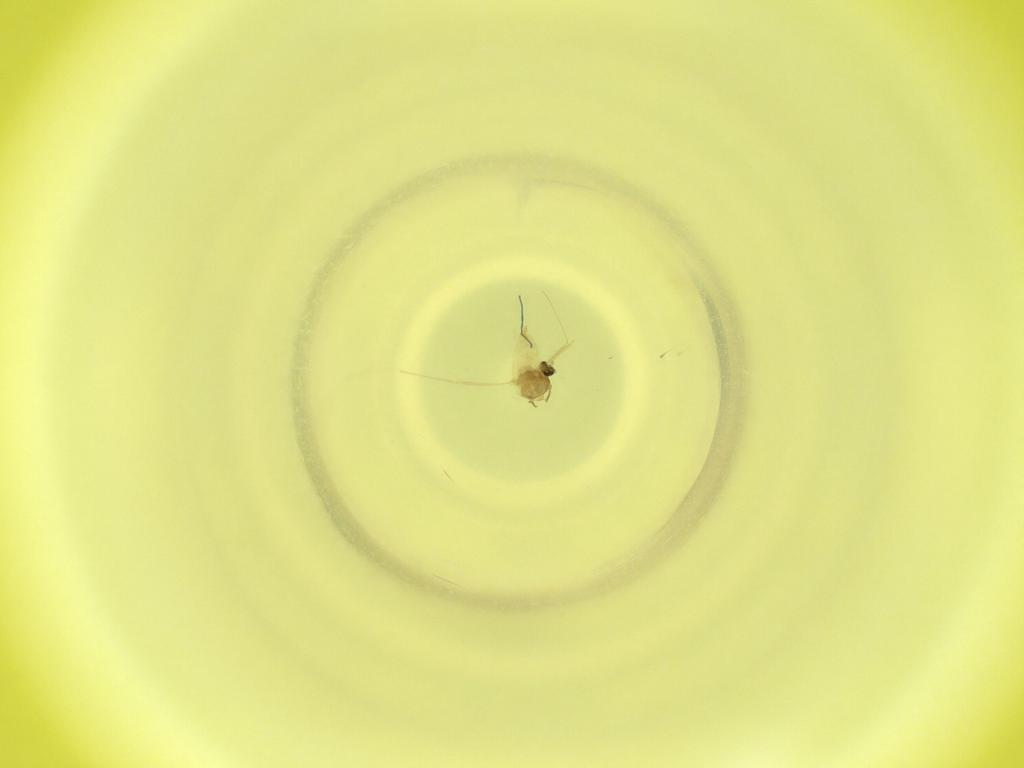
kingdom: Animalia
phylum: Arthropoda
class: Insecta
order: Diptera
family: Cecidomyiidae
